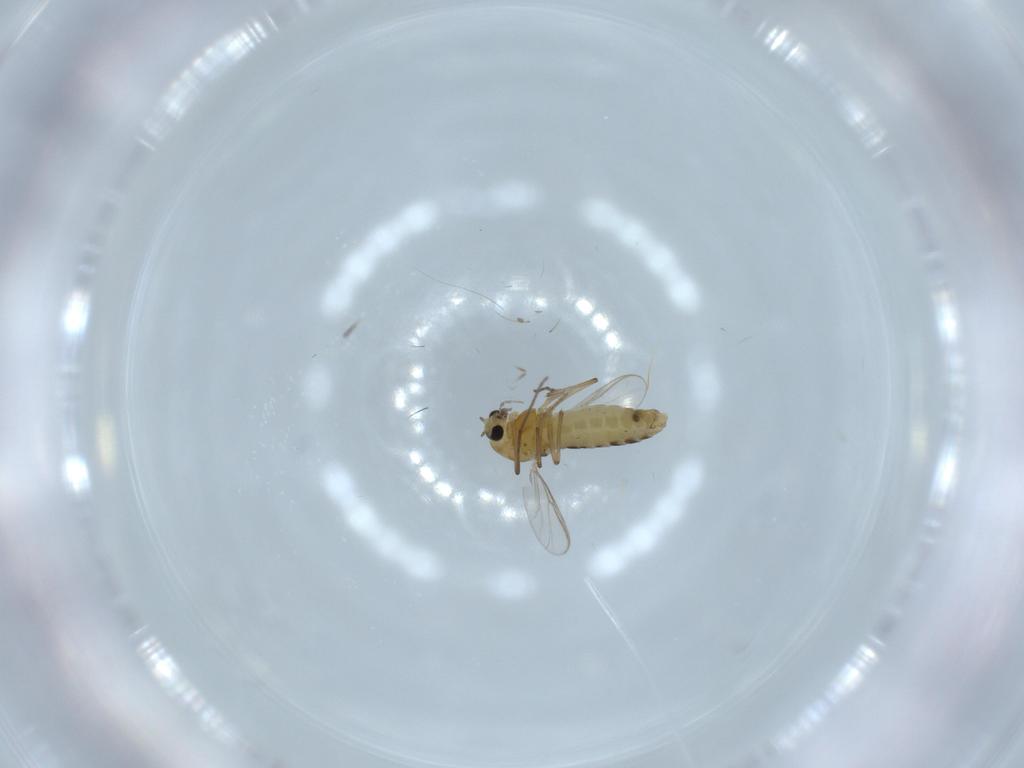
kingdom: Animalia
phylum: Arthropoda
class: Insecta
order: Diptera
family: Chironomidae
